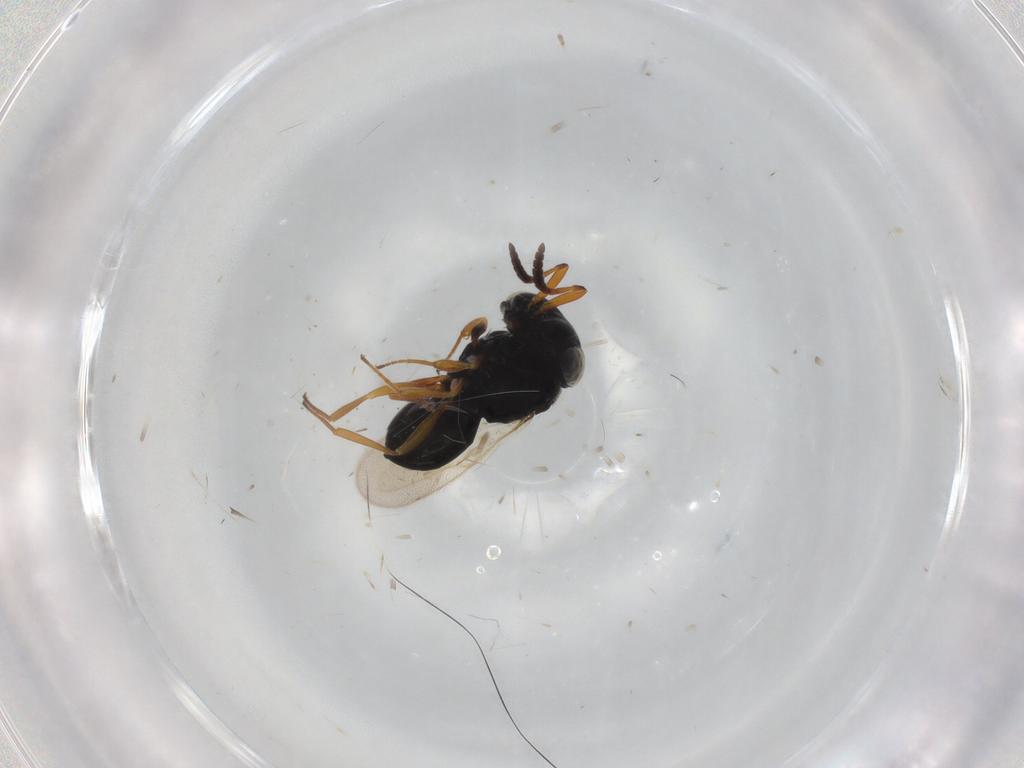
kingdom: Animalia
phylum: Arthropoda
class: Insecta
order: Hymenoptera
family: Scelionidae
